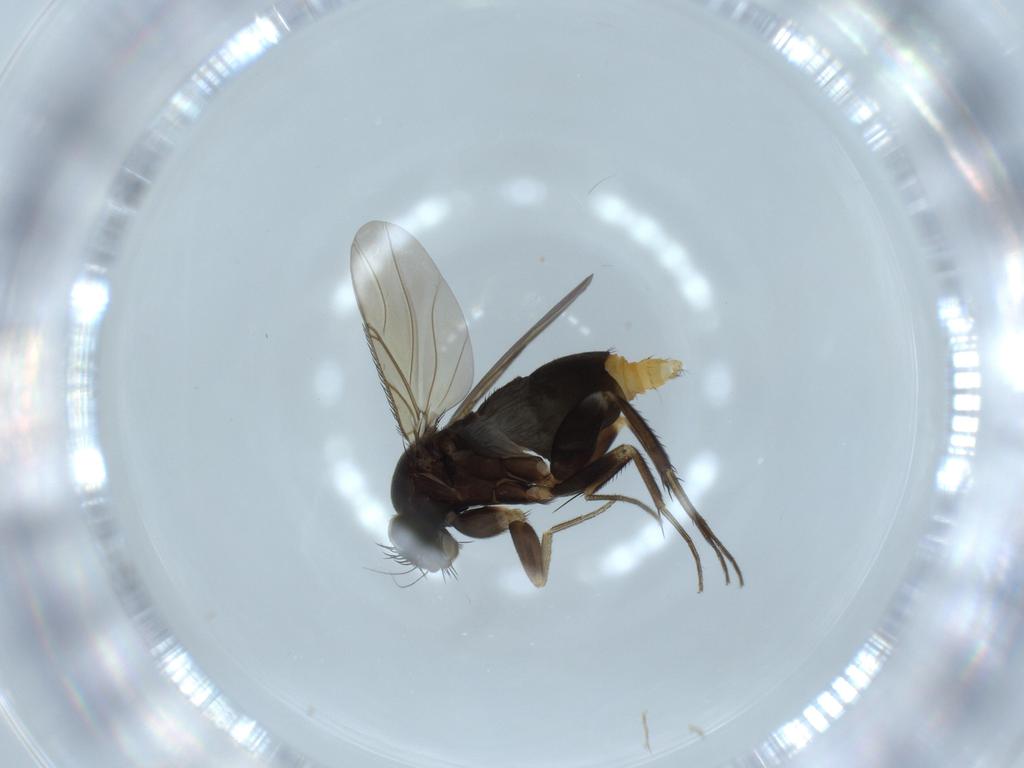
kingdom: Animalia
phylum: Arthropoda
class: Insecta
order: Diptera
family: Phoridae
